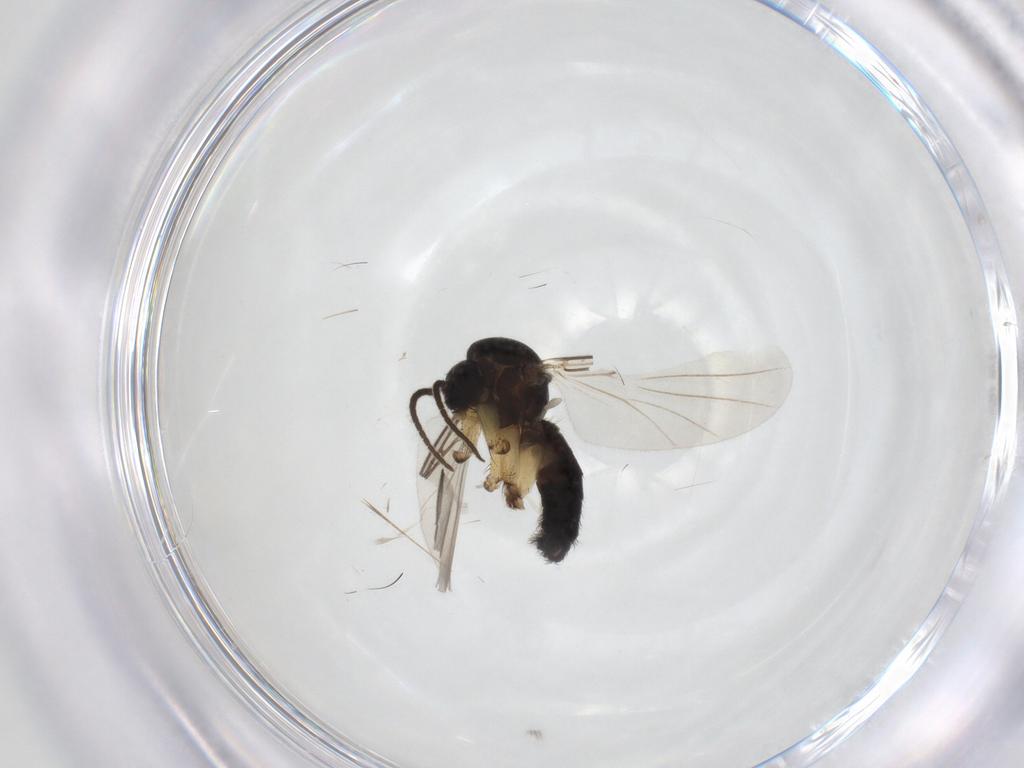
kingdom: Animalia
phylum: Arthropoda
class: Insecta
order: Diptera
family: Mycetophilidae
